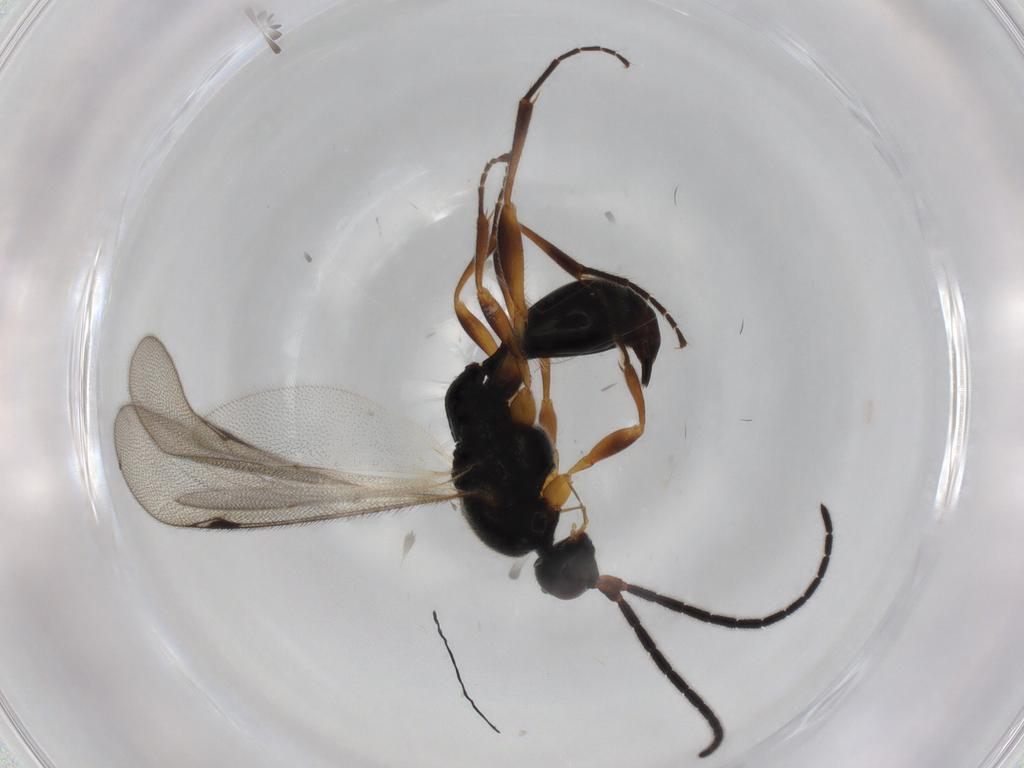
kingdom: Animalia
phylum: Arthropoda
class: Insecta
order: Hymenoptera
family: Proctotrupidae
